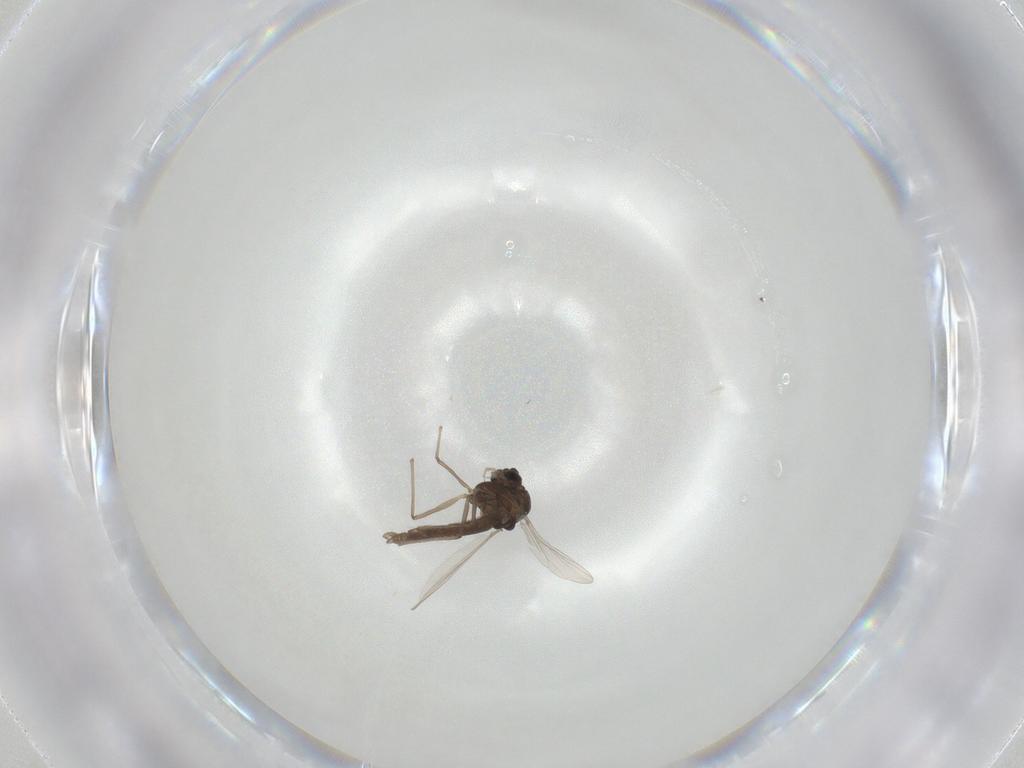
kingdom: Animalia
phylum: Arthropoda
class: Insecta
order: Diptera
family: Chironomidae
